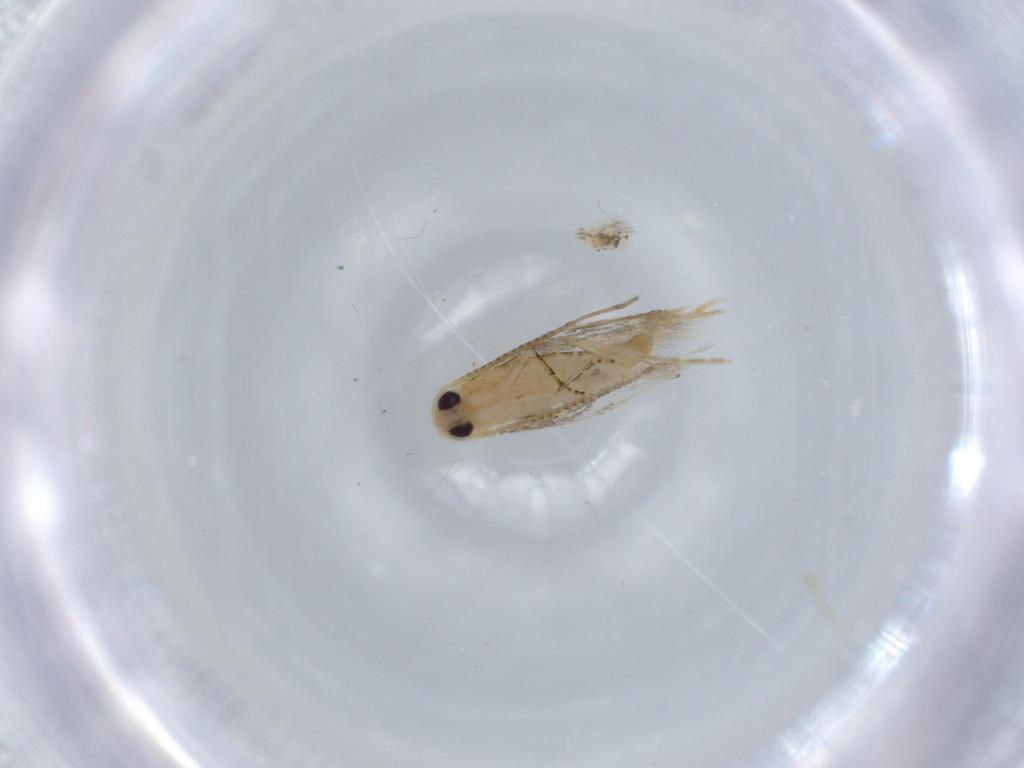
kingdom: Animalia
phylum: Arthropoda
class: Insecta
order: Lepidoptera
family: Bucculatricidae
